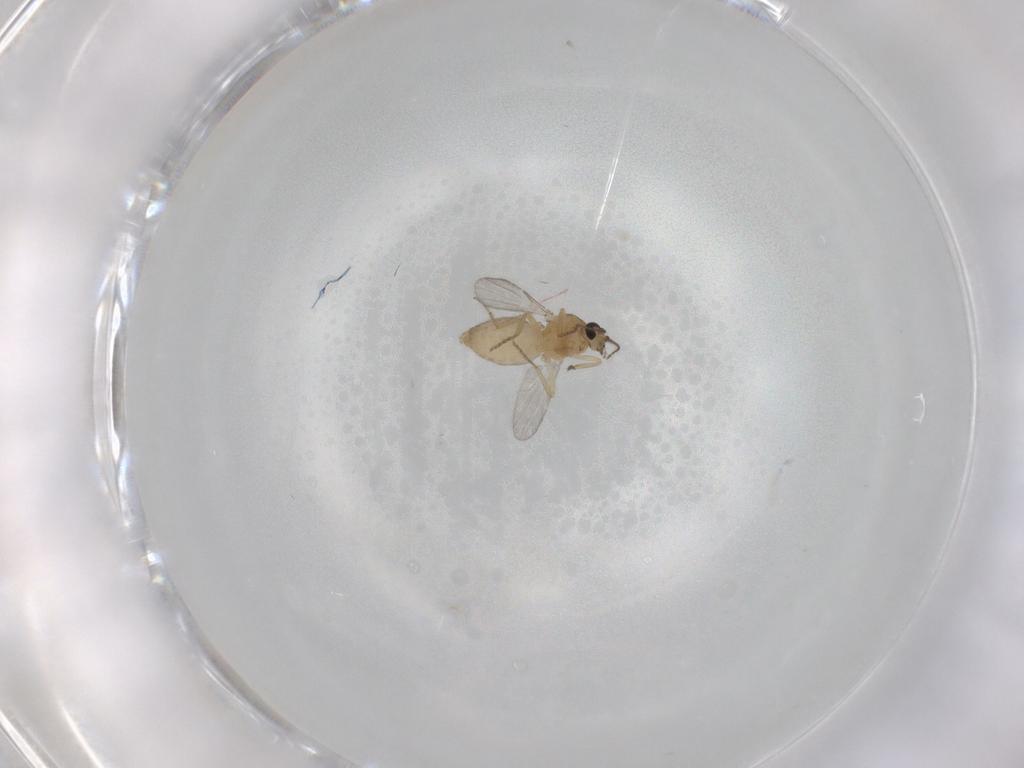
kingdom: Animalia
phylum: Arthropoda
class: Insecta
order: Diptera
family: Ceratopogonidae
